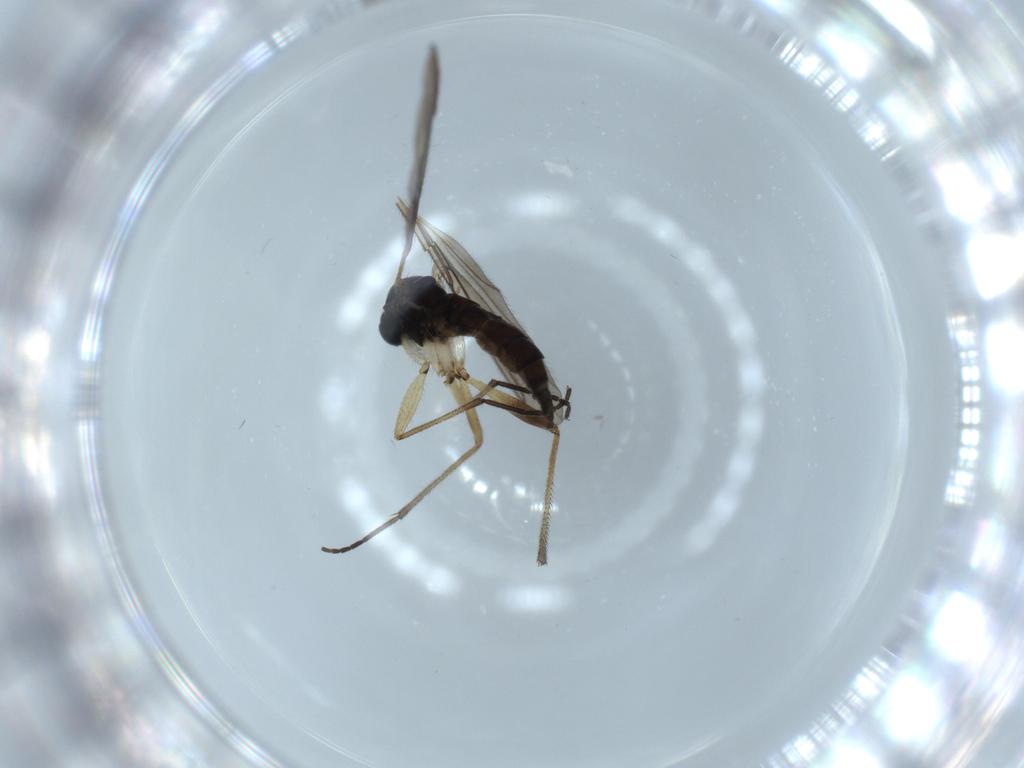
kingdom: Animalia
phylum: Arthropoda
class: Insecta
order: Diptera
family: Sciaridae
